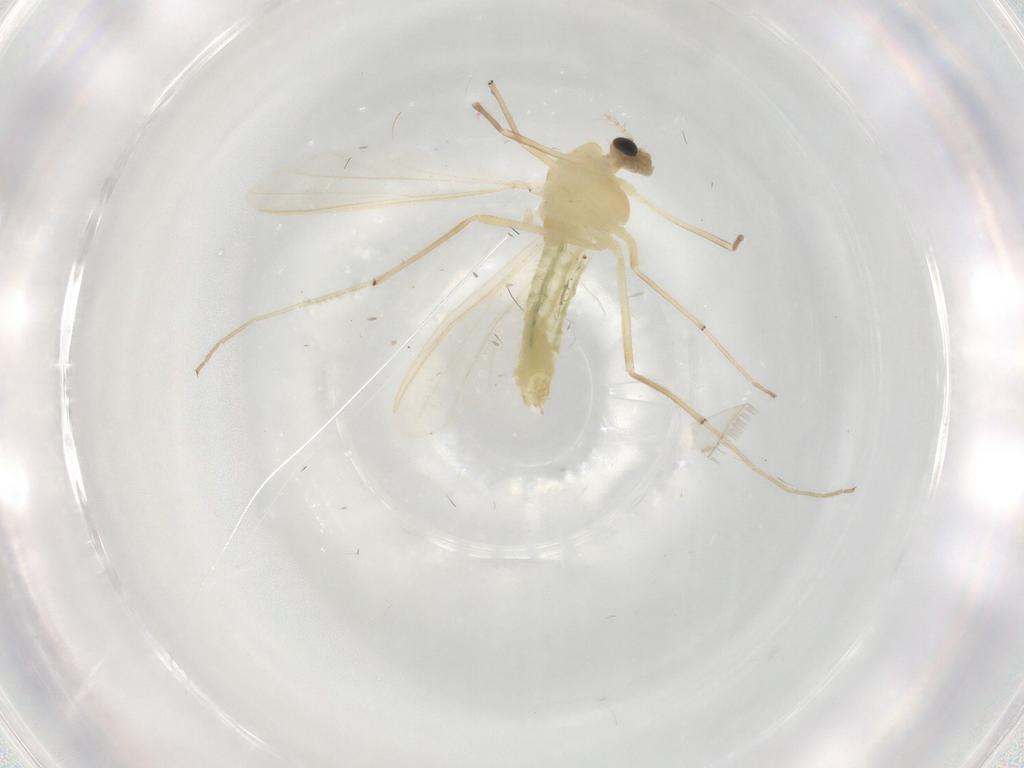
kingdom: Animalia
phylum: Arthropoda
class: Insecta
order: Diptera
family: Chironomidae
